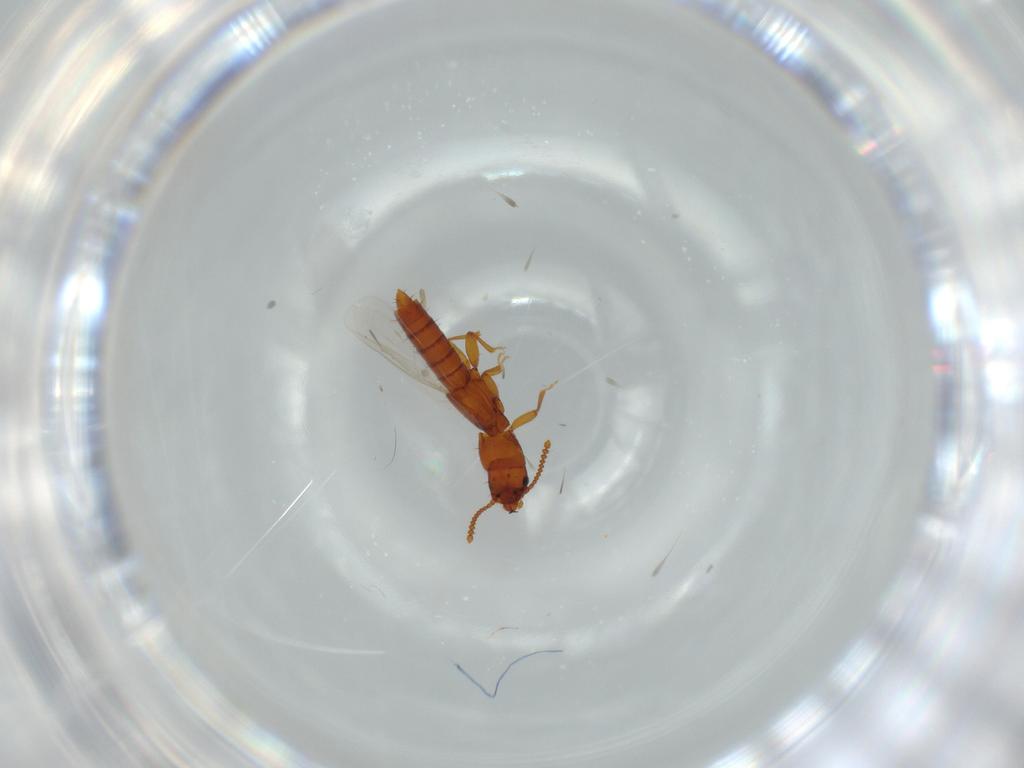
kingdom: Animalia
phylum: Arthropoda
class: Insecta
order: Coleoptera
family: Staphylinidae
